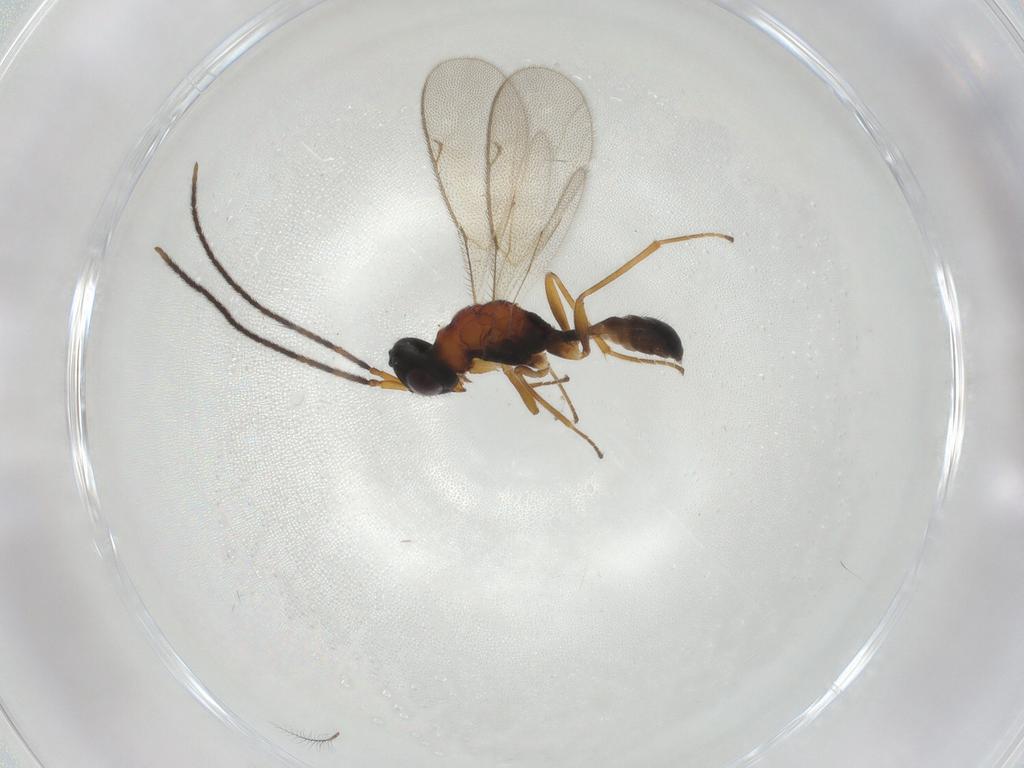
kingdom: Animalia
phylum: Arthropoda
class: Insecta
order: Hymenoptera
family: Pteromalidae
